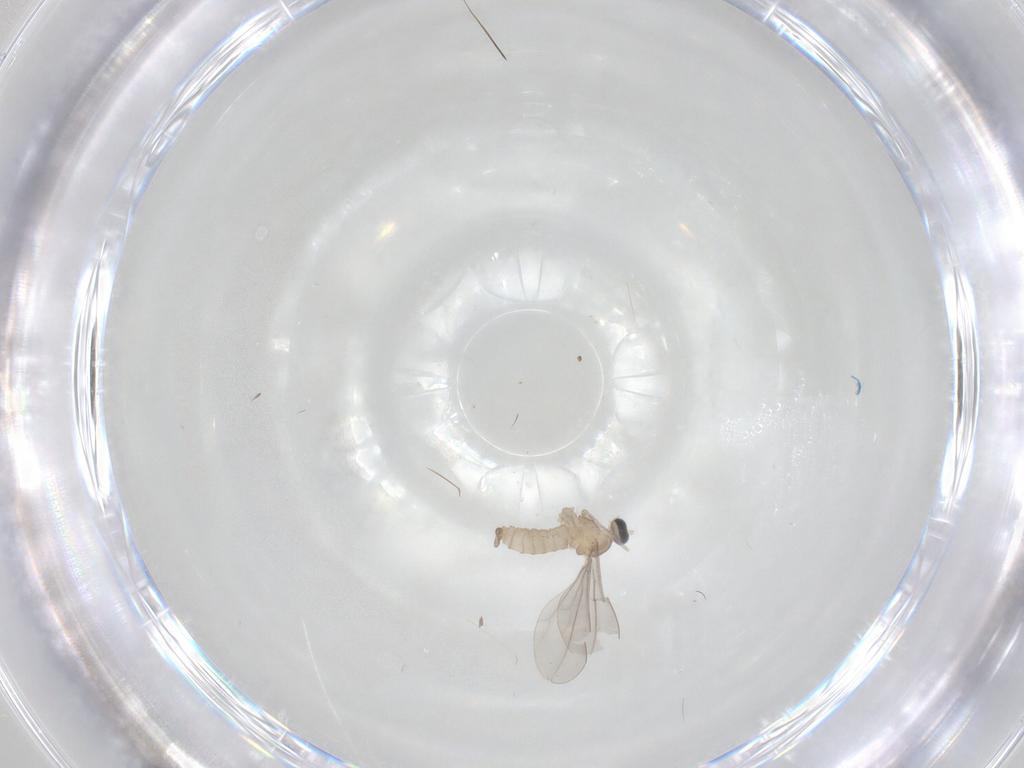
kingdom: Animalia
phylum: Arthropoda
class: Insecta
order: Diptera
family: Cecidomyiidae
